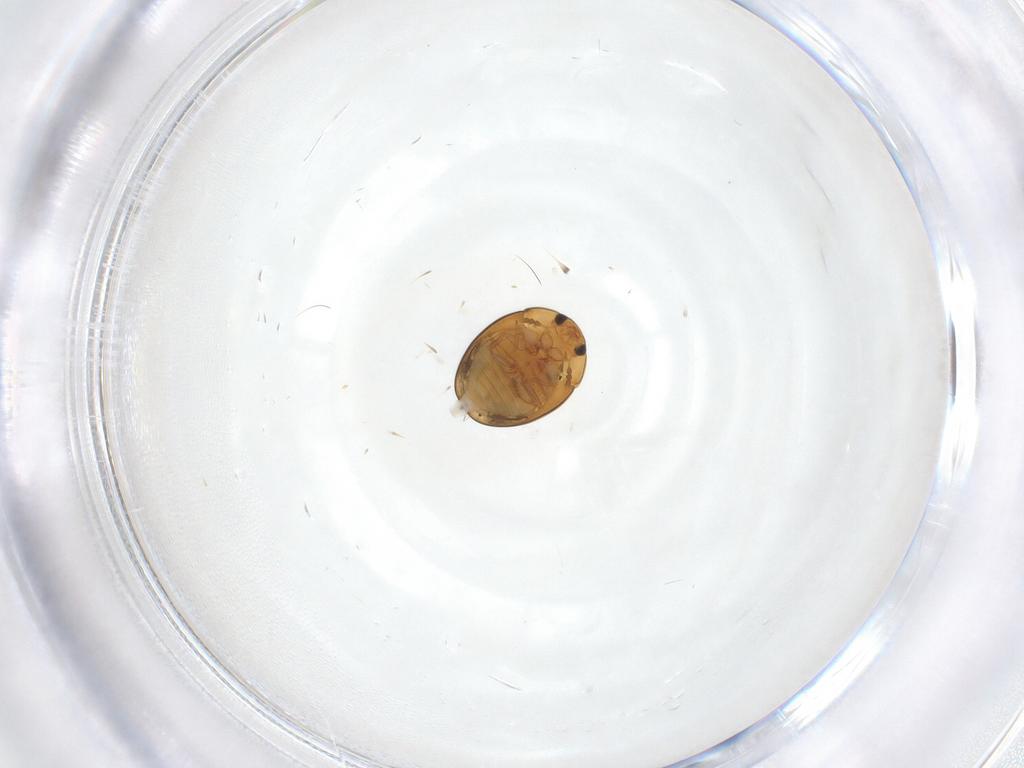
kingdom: Animalia
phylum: Arthropoda
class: Insecta
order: Coleoptera
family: Phalacridae
